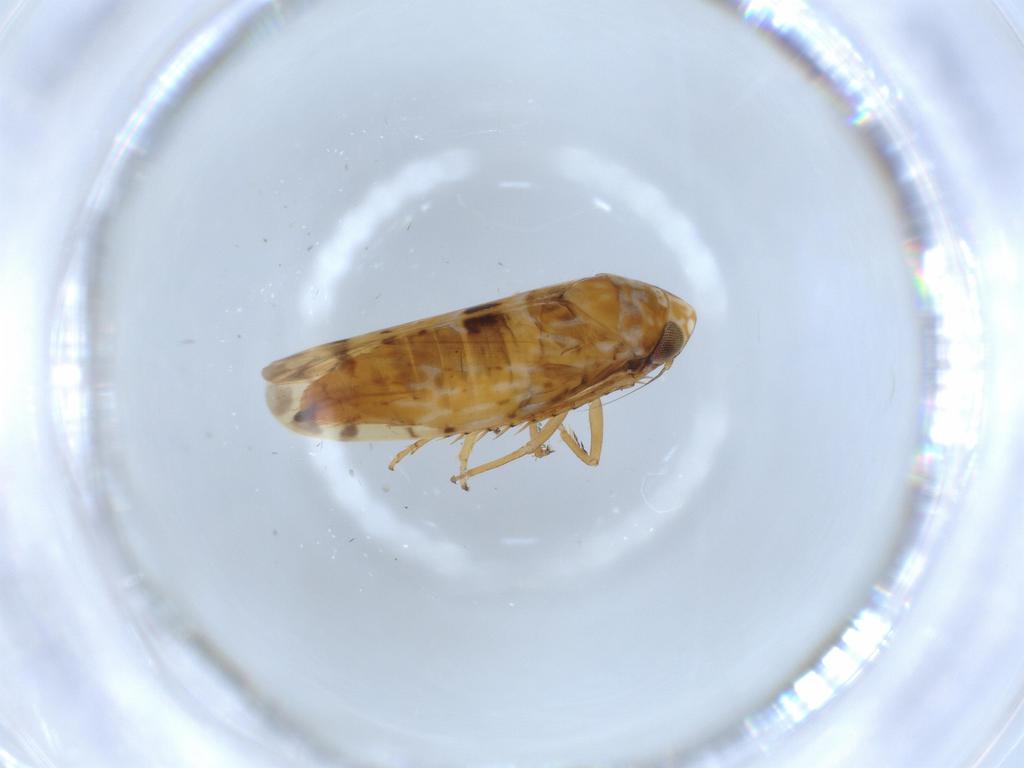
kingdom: Animalia
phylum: Arthropoda
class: Insecta
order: Hemiptera
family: Cicadellidae
